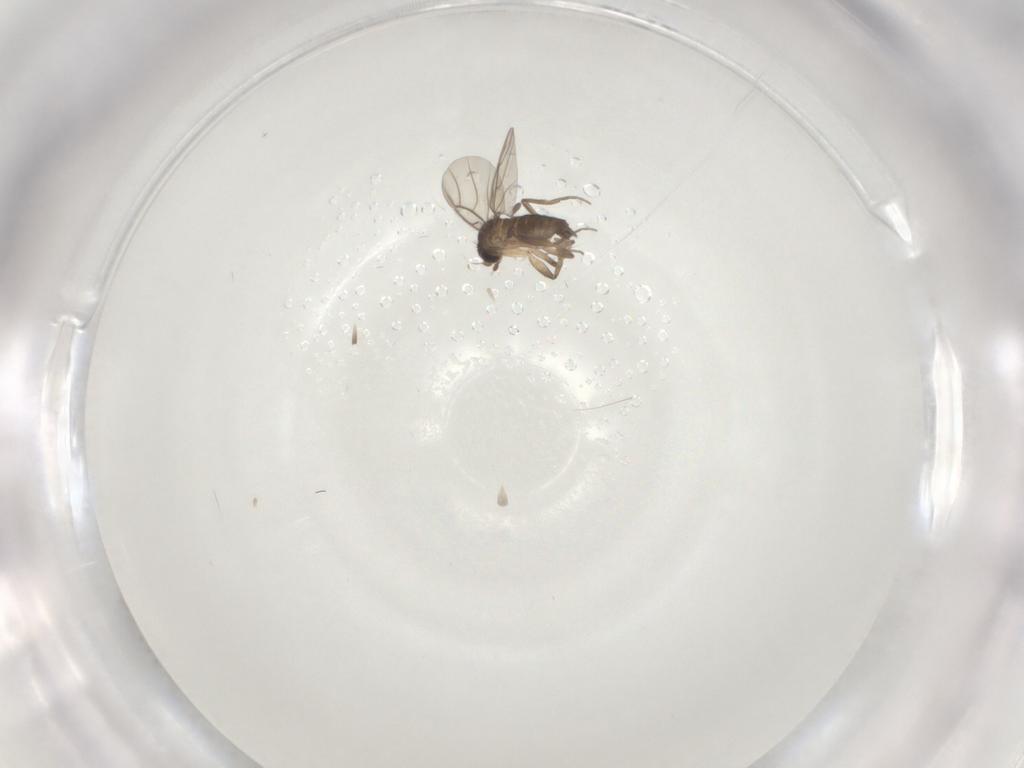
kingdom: Animalia
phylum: Arthropoda
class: Insecta
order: Diptera
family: Phoridae
